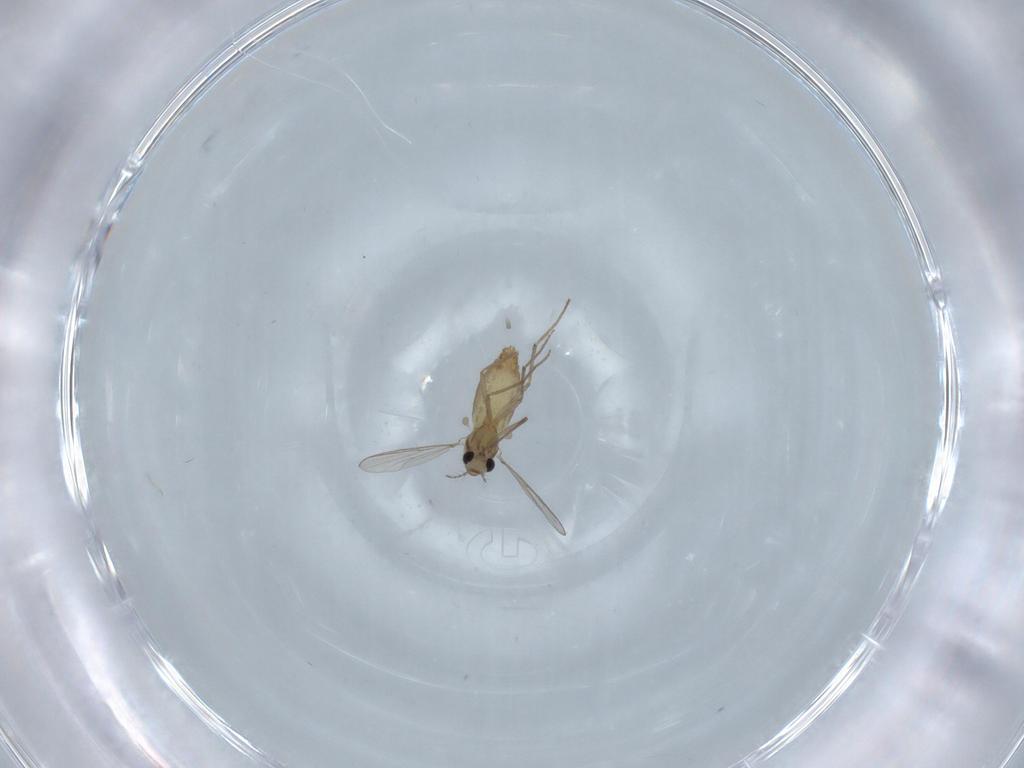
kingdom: Animalia
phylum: Arthropoda
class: Insecta
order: Diptera
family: Chironomidae
